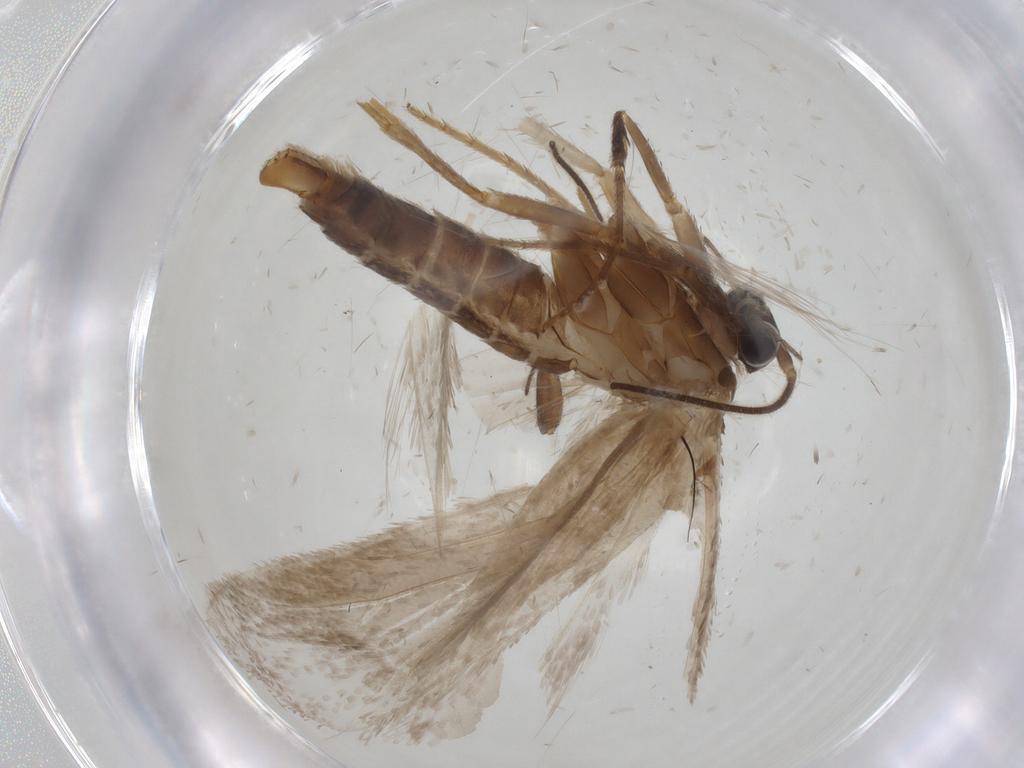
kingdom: Animalia
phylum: Arthropoda
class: Insecta
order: Lepidoptera
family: Tridentaformidae
